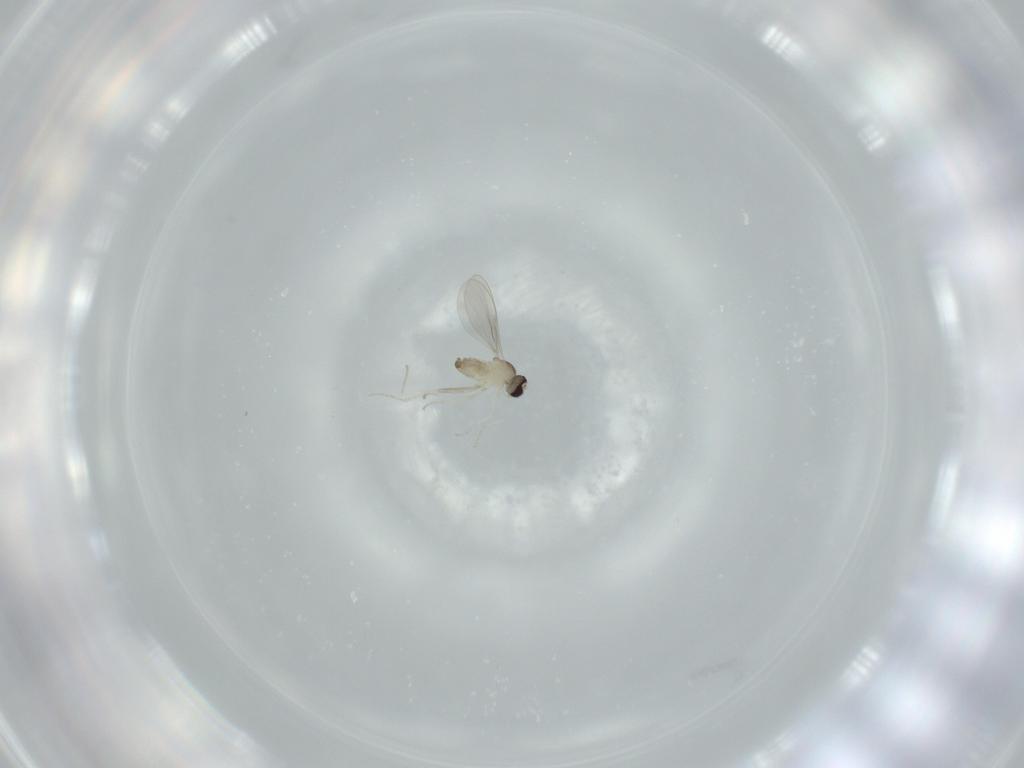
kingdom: Animalia
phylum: Arthropoda
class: Insecta
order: Diptera
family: Cecidomyiidae
